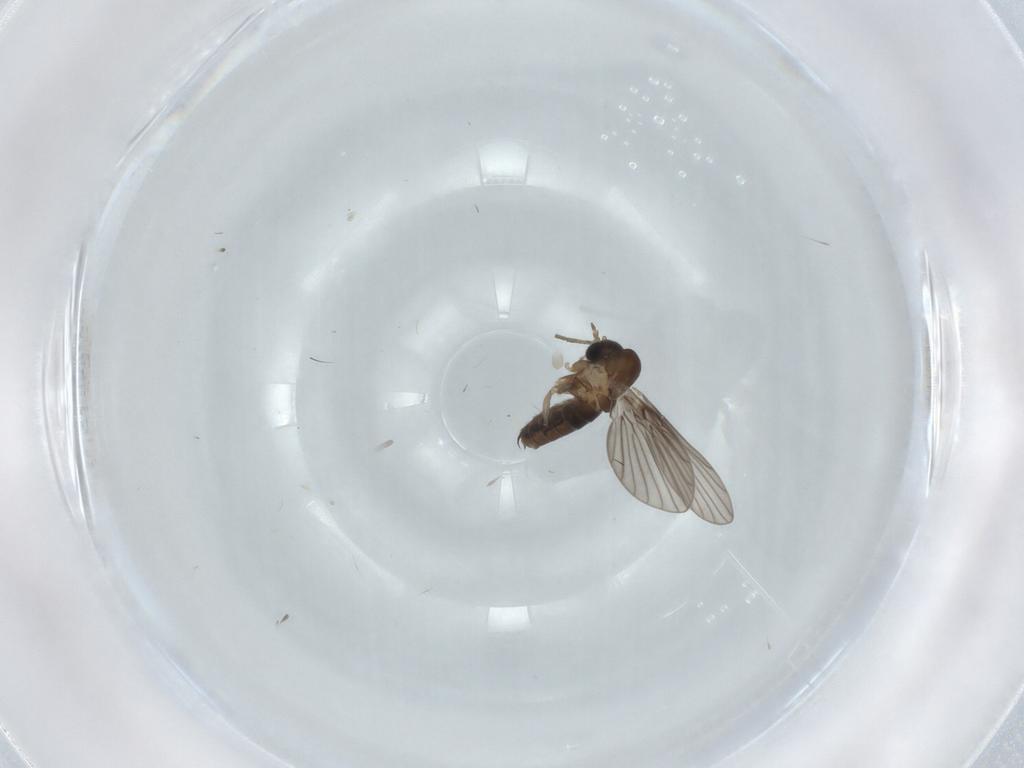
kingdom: Animalia
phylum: Arthropoda
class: Insecta
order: Diptera
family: Psychodidae
